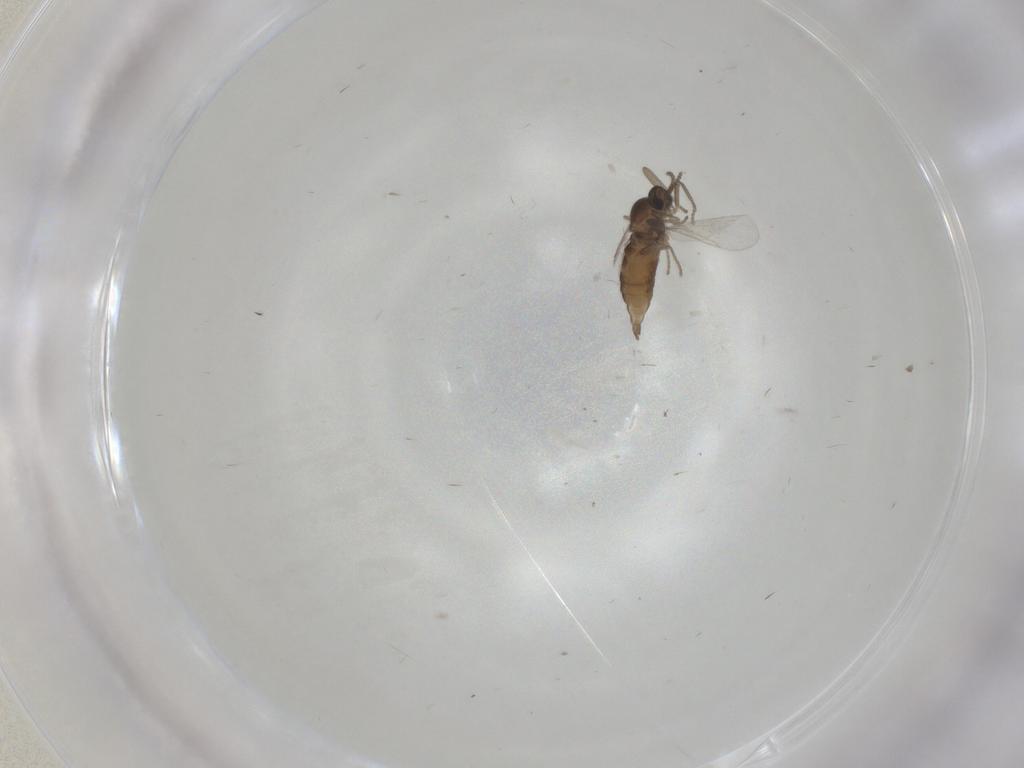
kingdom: Animalia
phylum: Arthropoda
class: Insecta
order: Diptera
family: Cecidomyiidae
